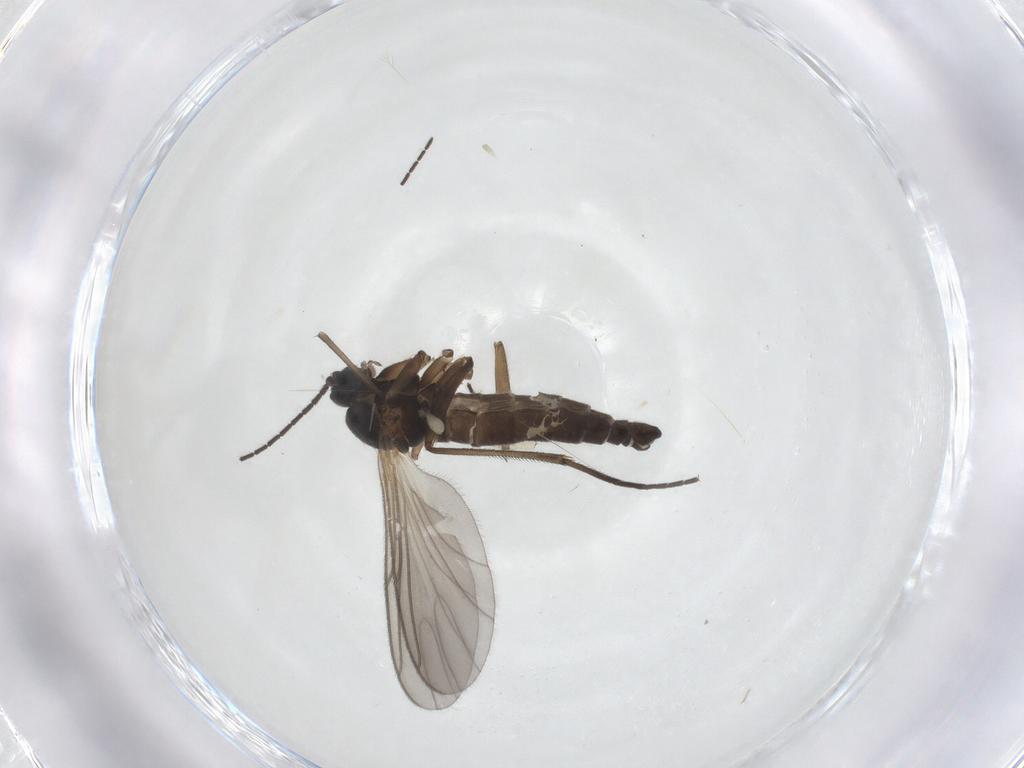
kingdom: Animalia
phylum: Arthropoda
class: Insecta
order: Diptera
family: Sciaridae
